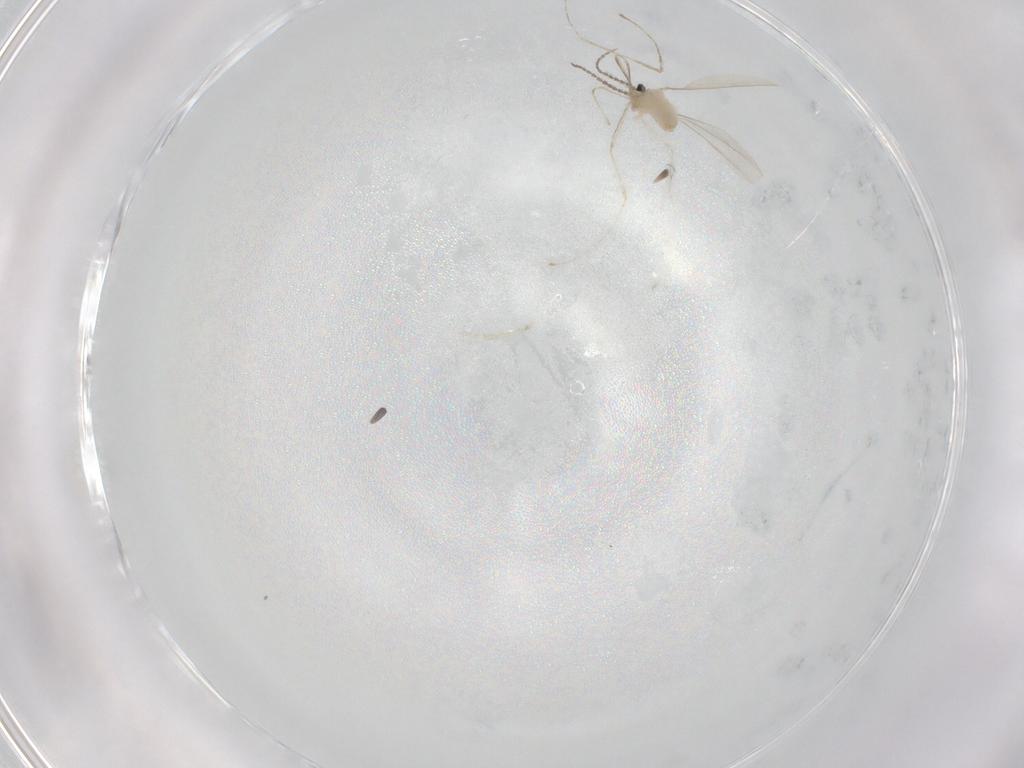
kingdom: Animalia
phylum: Arthropoda
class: Insecta
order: Diptera
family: Cecidomyiidae
